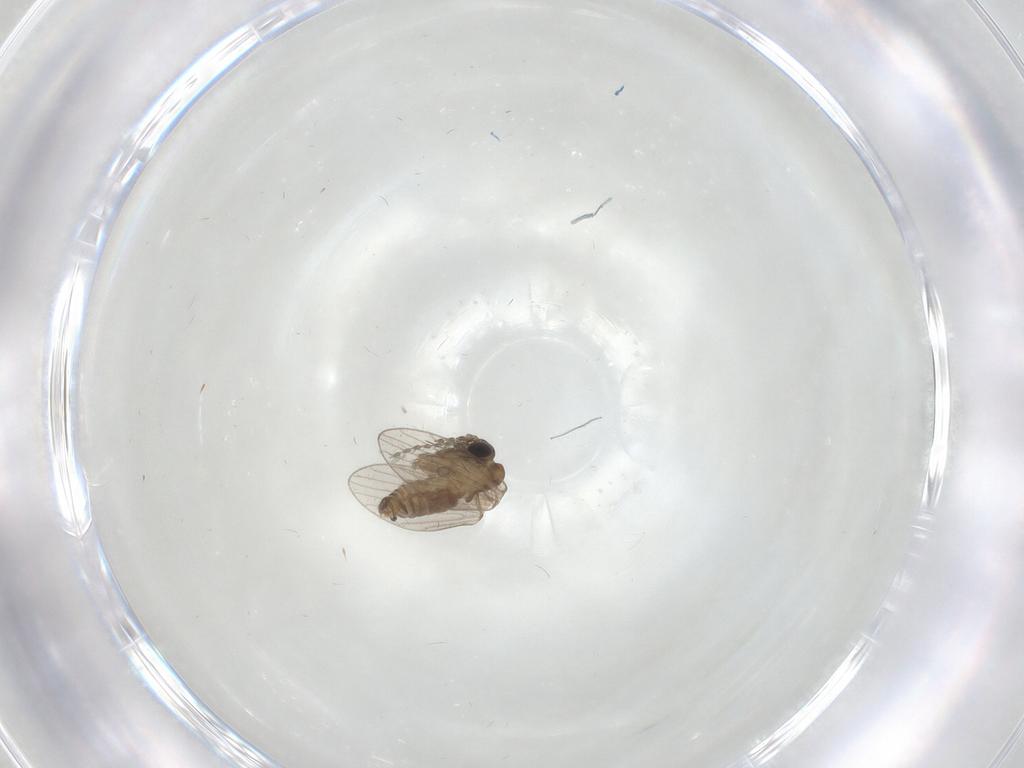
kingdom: Animalia
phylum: Arthropoda
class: Insecta
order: Diptera
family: Psychodidae
